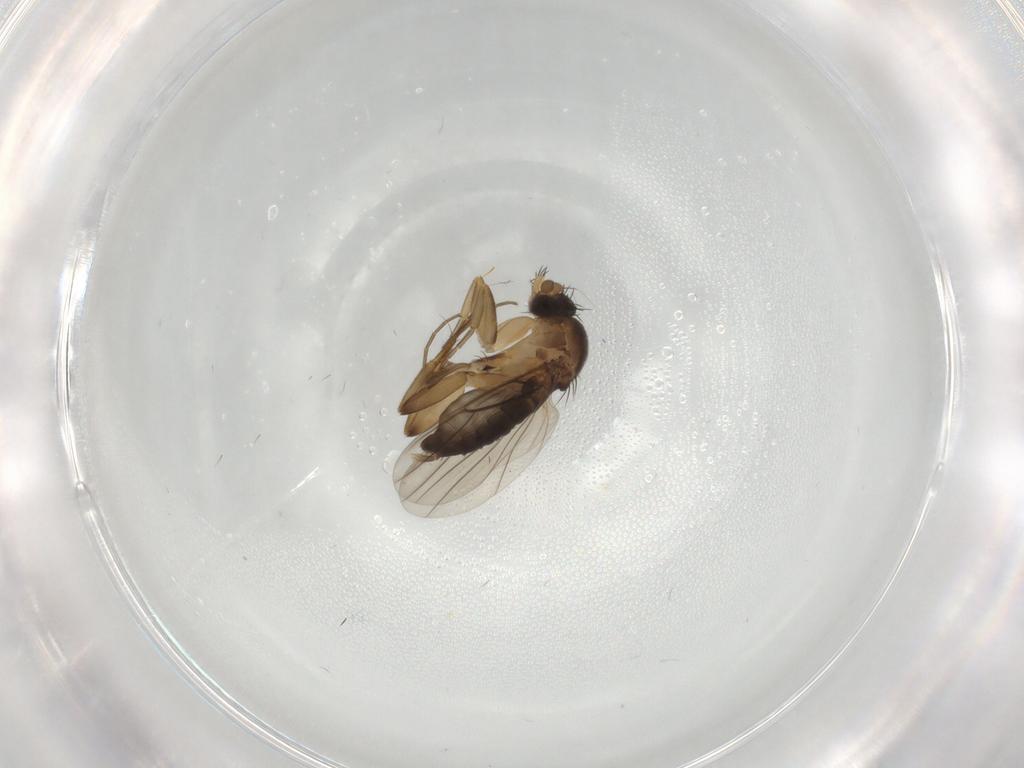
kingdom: Animalia
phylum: Arthropoda
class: Insecta
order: Diptera
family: Phoridae
